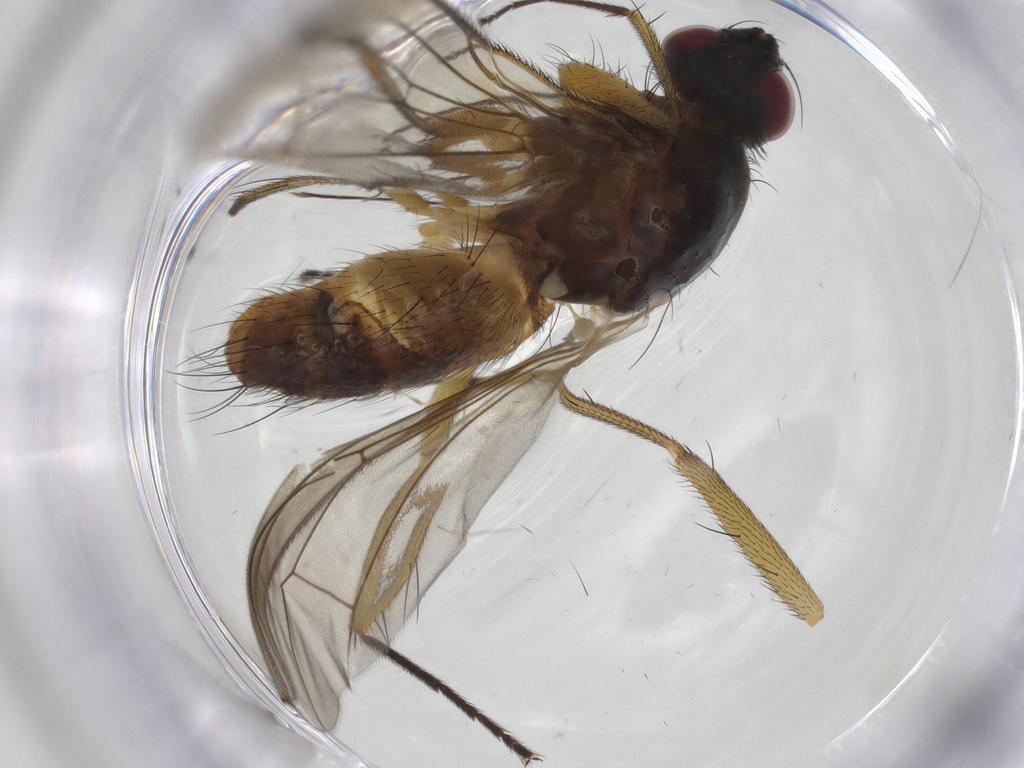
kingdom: Animalia
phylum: Arthropoda
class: Insecta
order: Diptera
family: Muscidae
